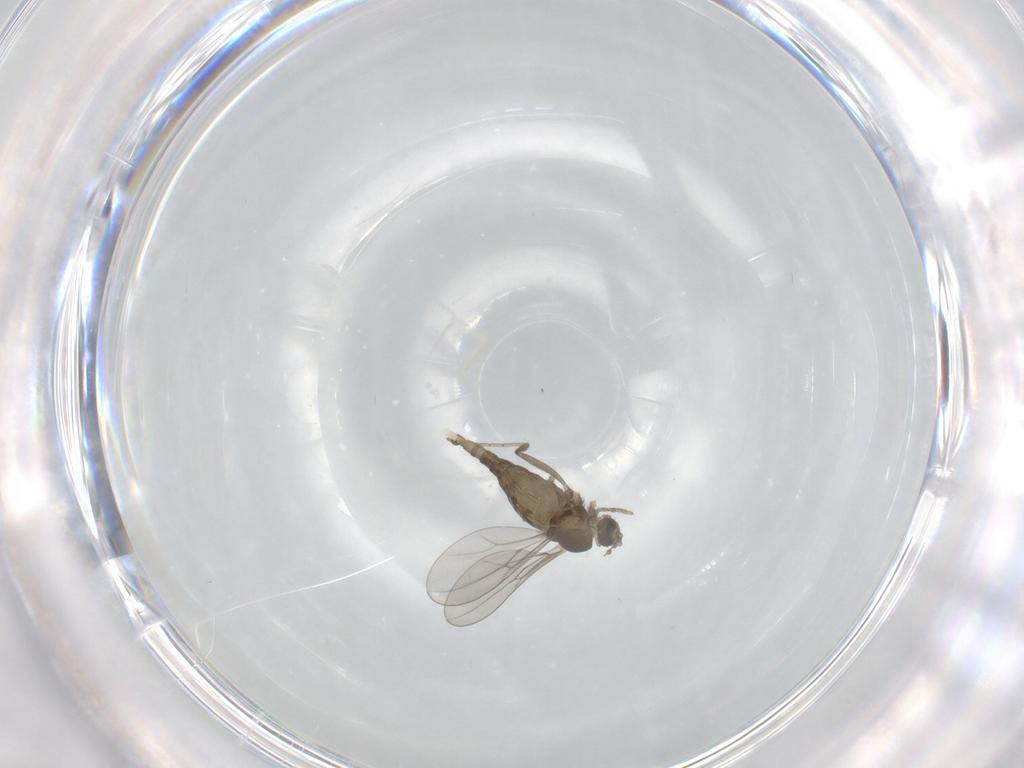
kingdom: Animalia
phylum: Arthropoda
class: Insecta
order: Diptera
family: Cecidomyiidae
